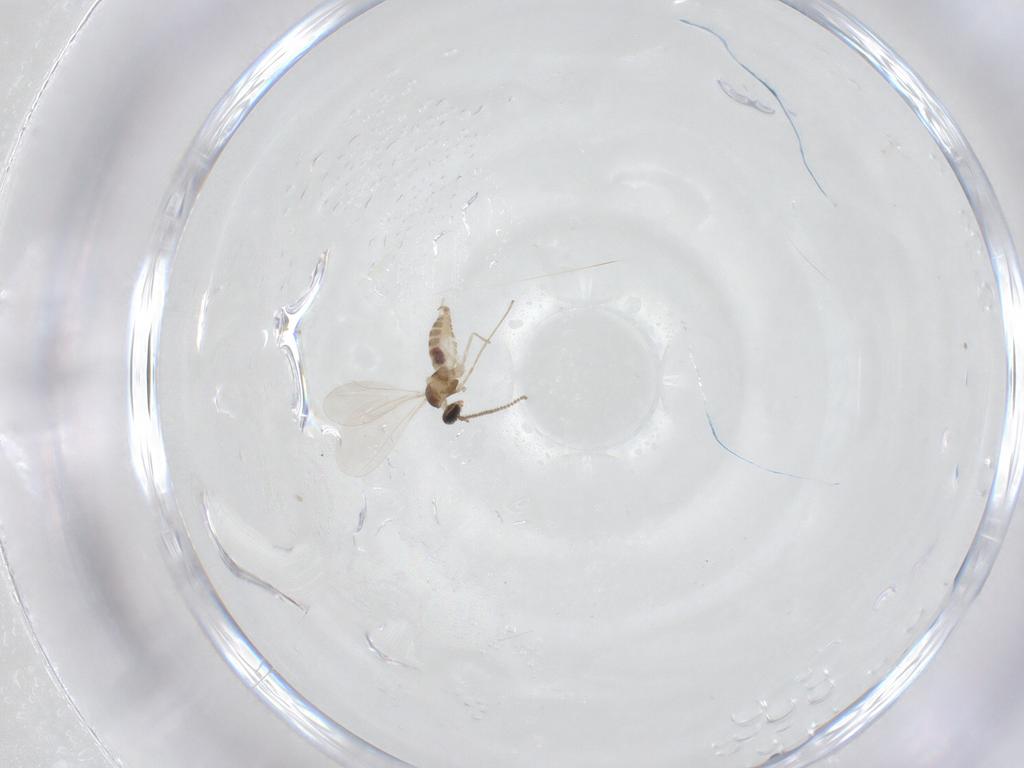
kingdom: Animalia
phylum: Arthropoda
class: Insecta
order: Diptera
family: Cecidomyiidae
